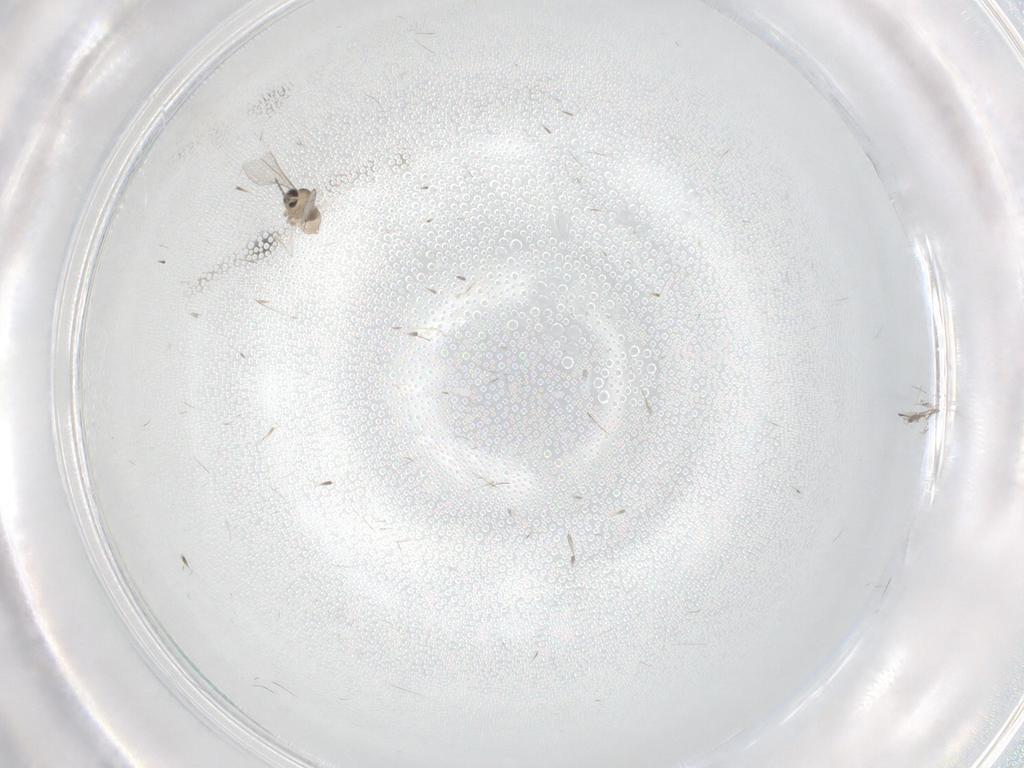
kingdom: Animalia
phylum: Arthropoda
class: Insecta
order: Diptera
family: Cecidomyiidae
